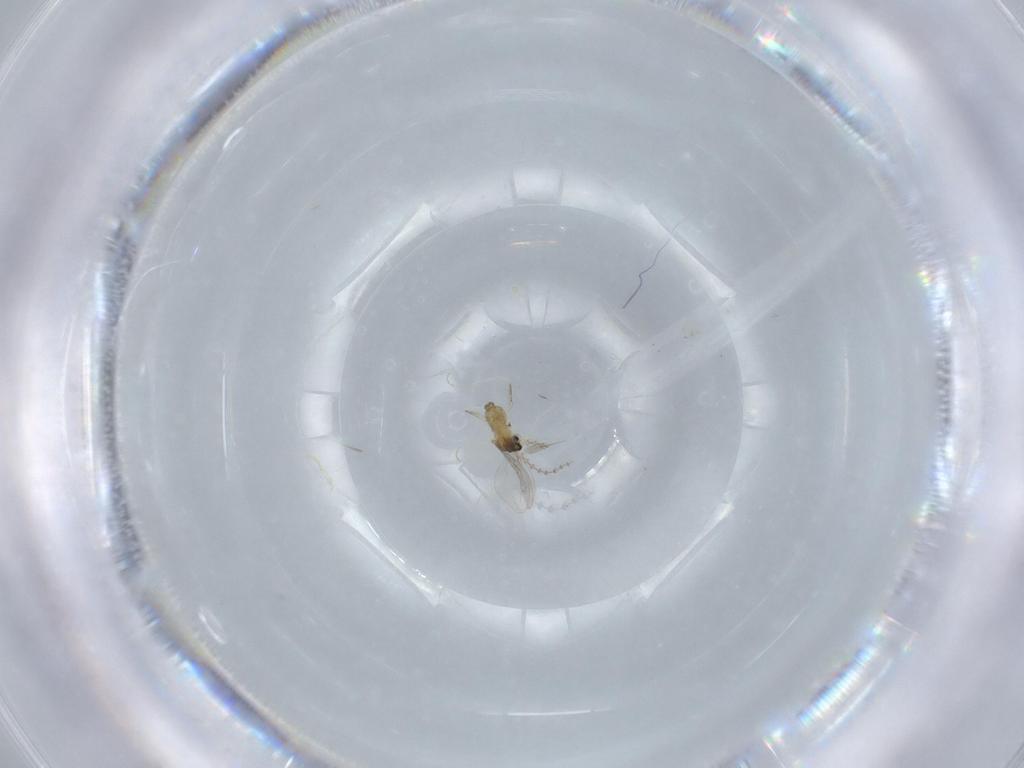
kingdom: Animalia
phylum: Arthropoda
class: Insecta
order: Diptera
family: Cecidomyiidae
